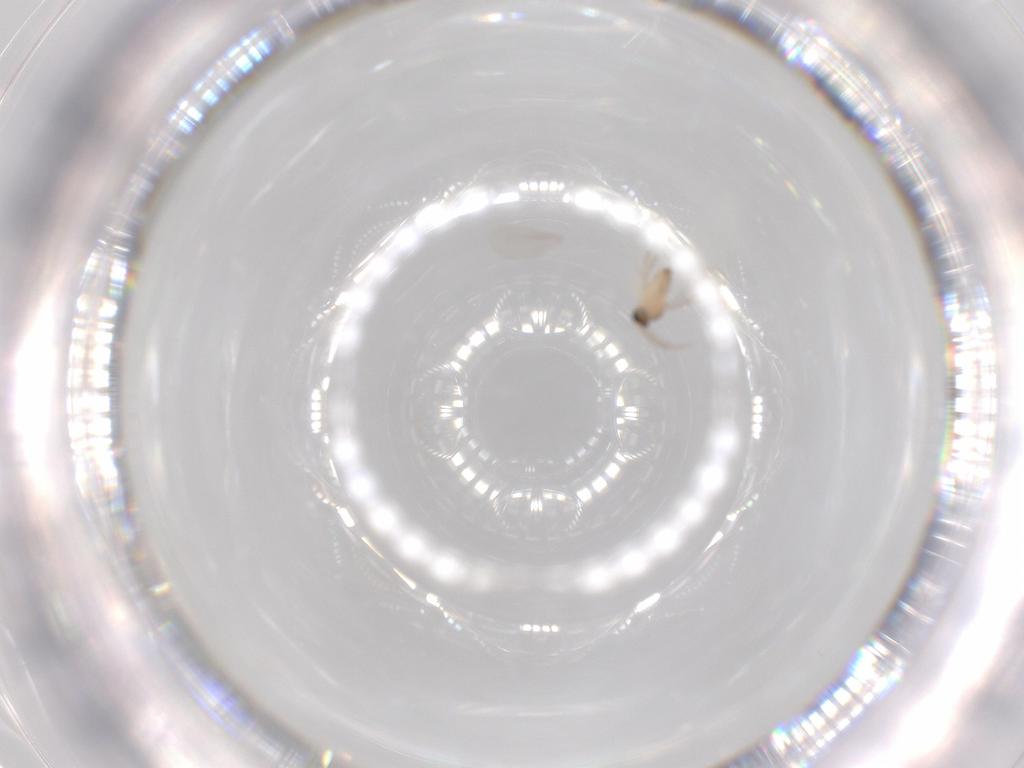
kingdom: Animalia
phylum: Arthropoda
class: Insecta
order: Diptera
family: Cecidomyiidae
